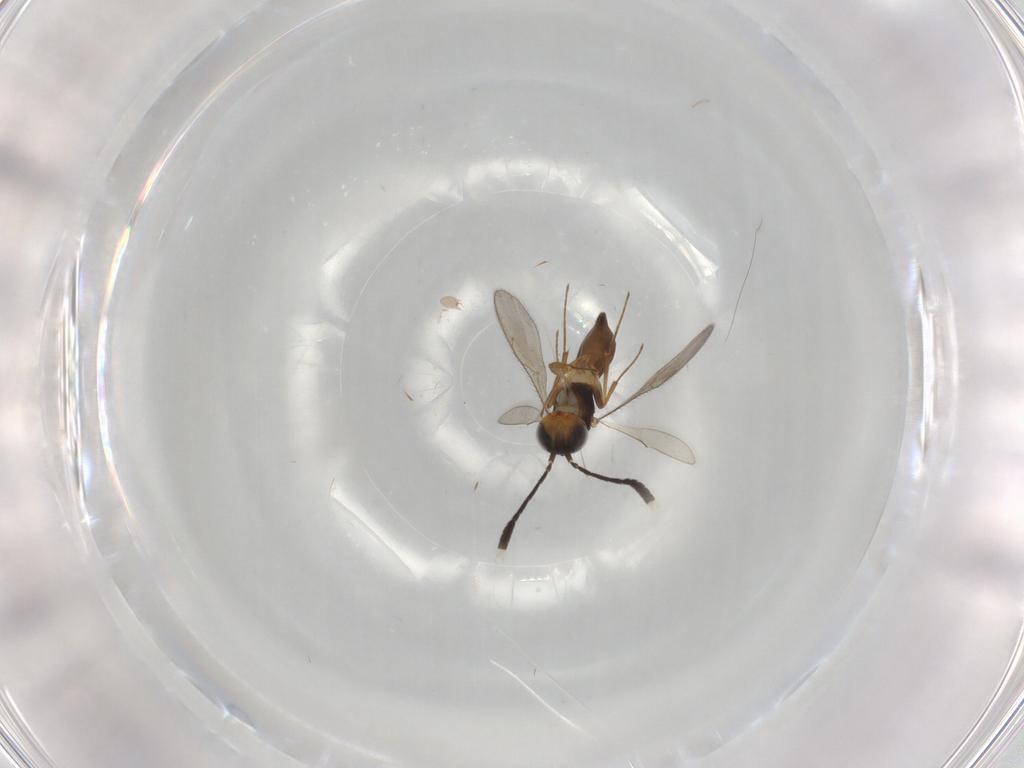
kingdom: Animalia
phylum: Arthropoda
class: Insecta
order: Hymenoptera
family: Scelionidae
